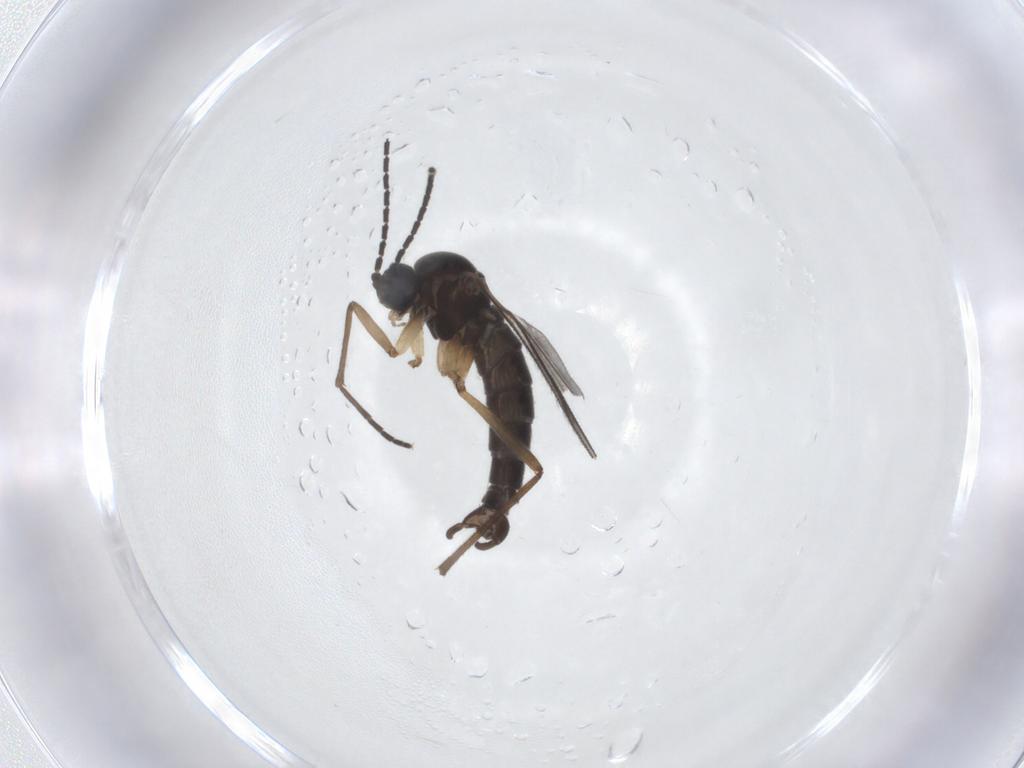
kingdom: Animalia
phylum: Arthropoda
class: Insecta
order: Diptera
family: Sciaridae
